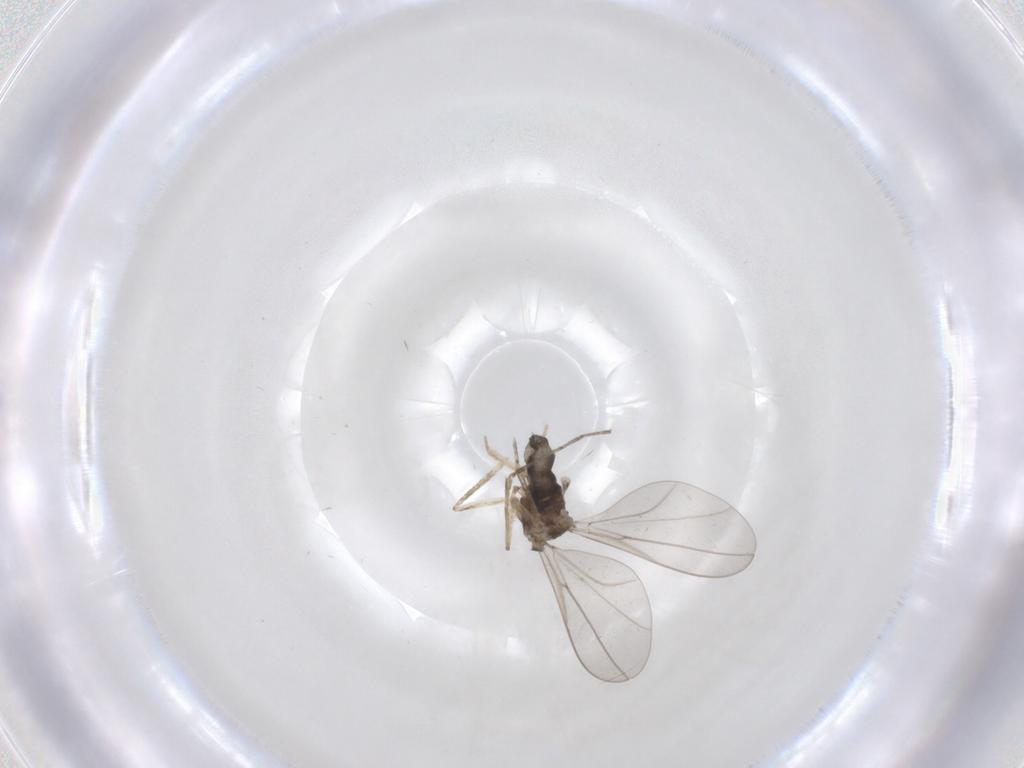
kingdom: Animalia
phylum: Arthropoda
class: Insecta
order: Diptera
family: Cecidomyiidae
